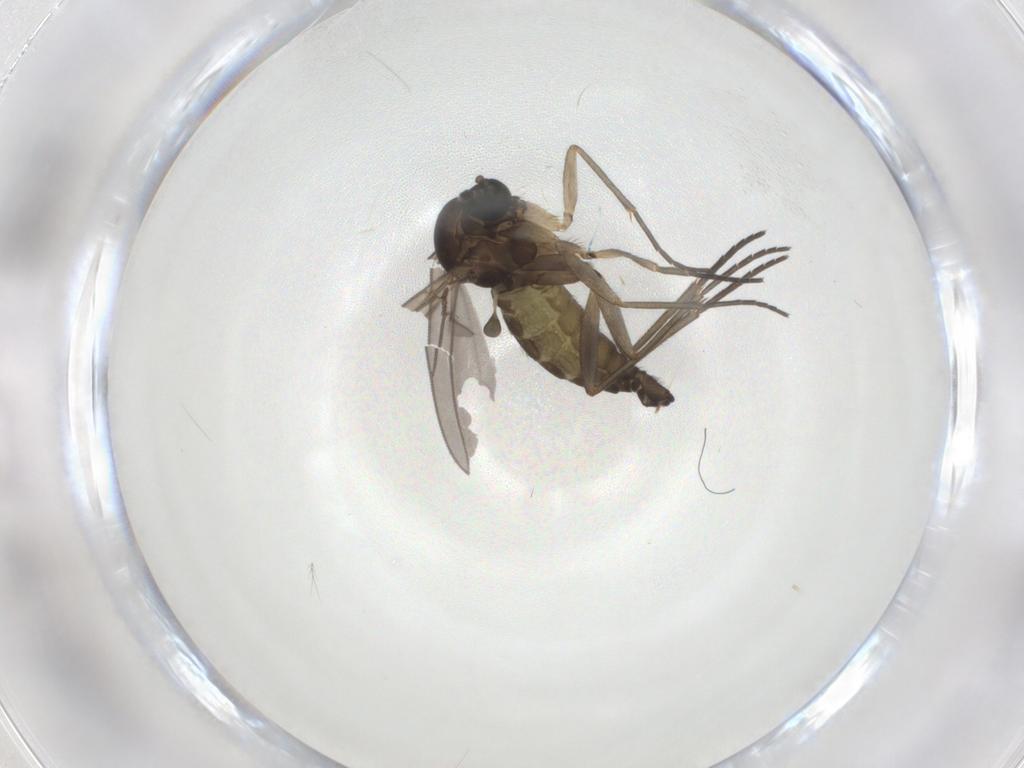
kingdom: Animalia
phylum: Arthropoda
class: Insecta
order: Diptera
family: Sciaridae
